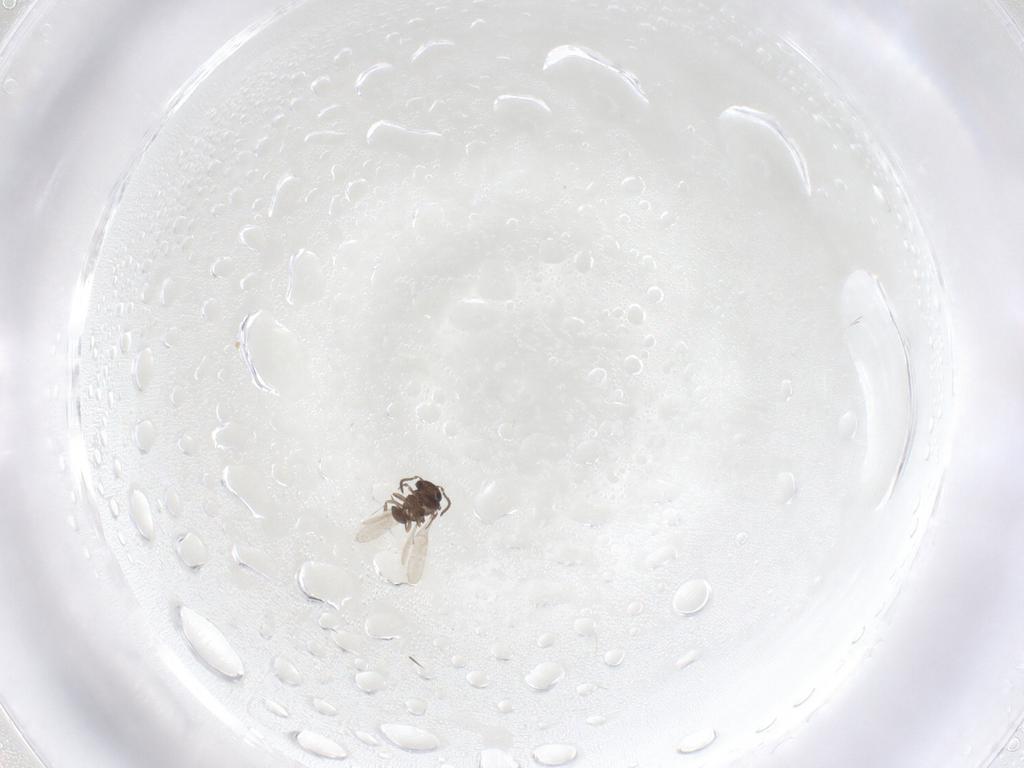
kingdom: Animalia
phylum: Arthropoda
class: Insecta
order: Hymenoptera
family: Scelionidae
